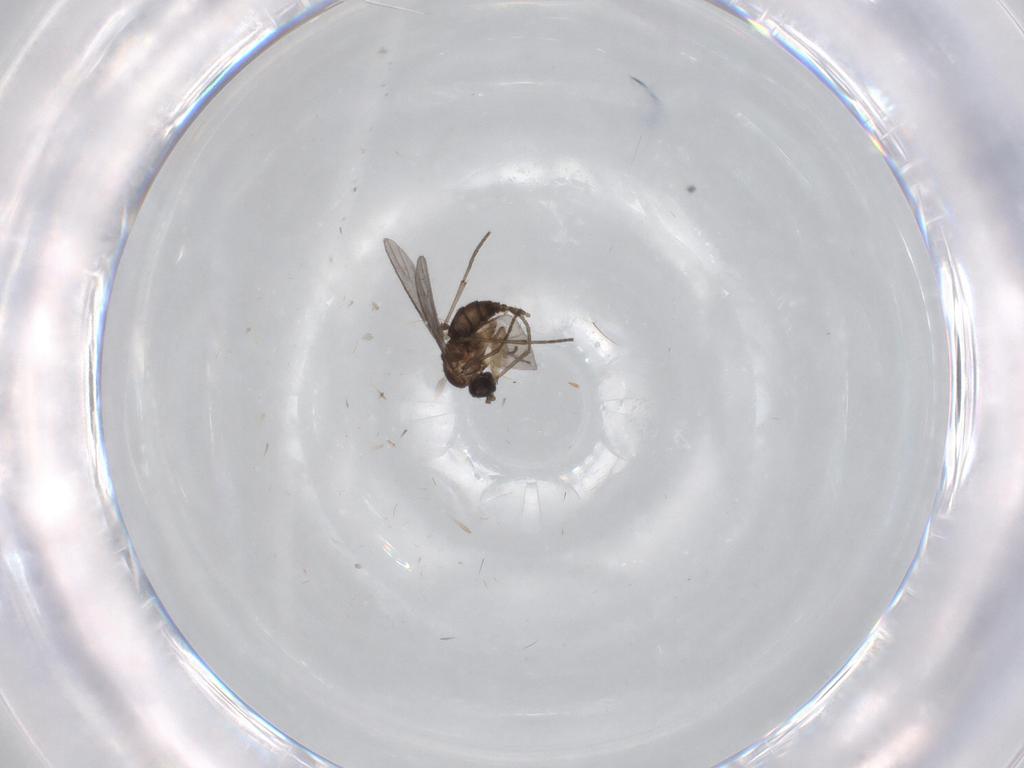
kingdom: Animalia
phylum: Arthropoda
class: Insecta
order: Diptera
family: Sciaridae
